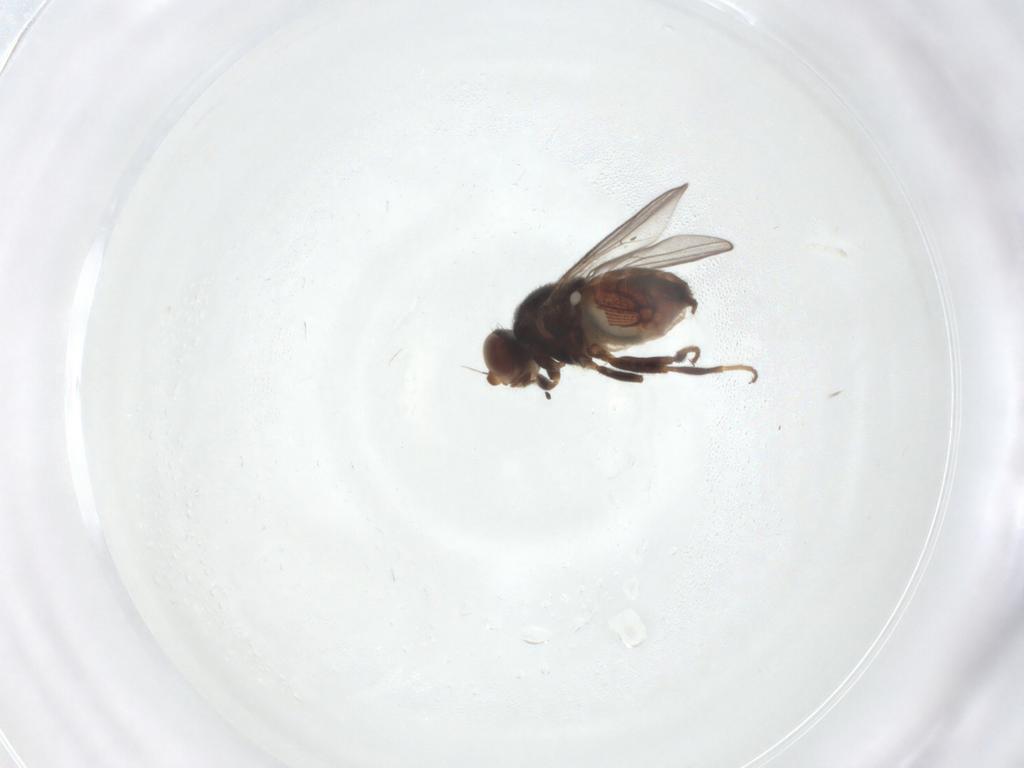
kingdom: Animalia
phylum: Arthropoda
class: Insecta
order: Diptera
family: Chloropidae
